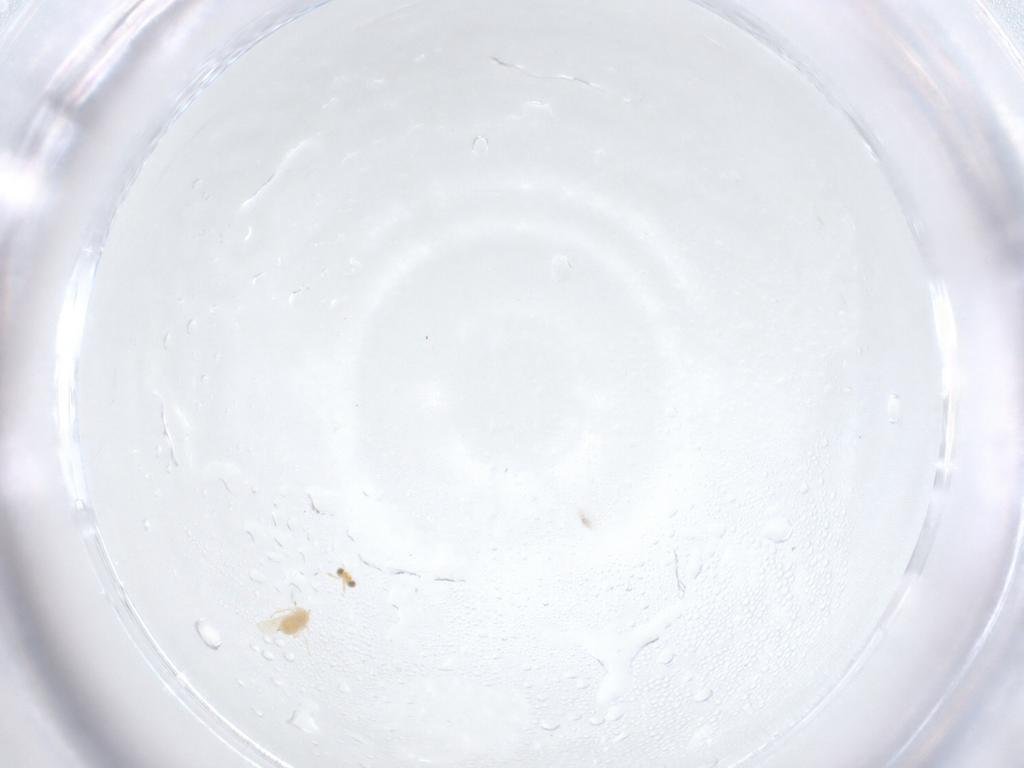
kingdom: Animalia
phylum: Arthropoda
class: Insecta
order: Hymenoptera
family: Aphelinidae
